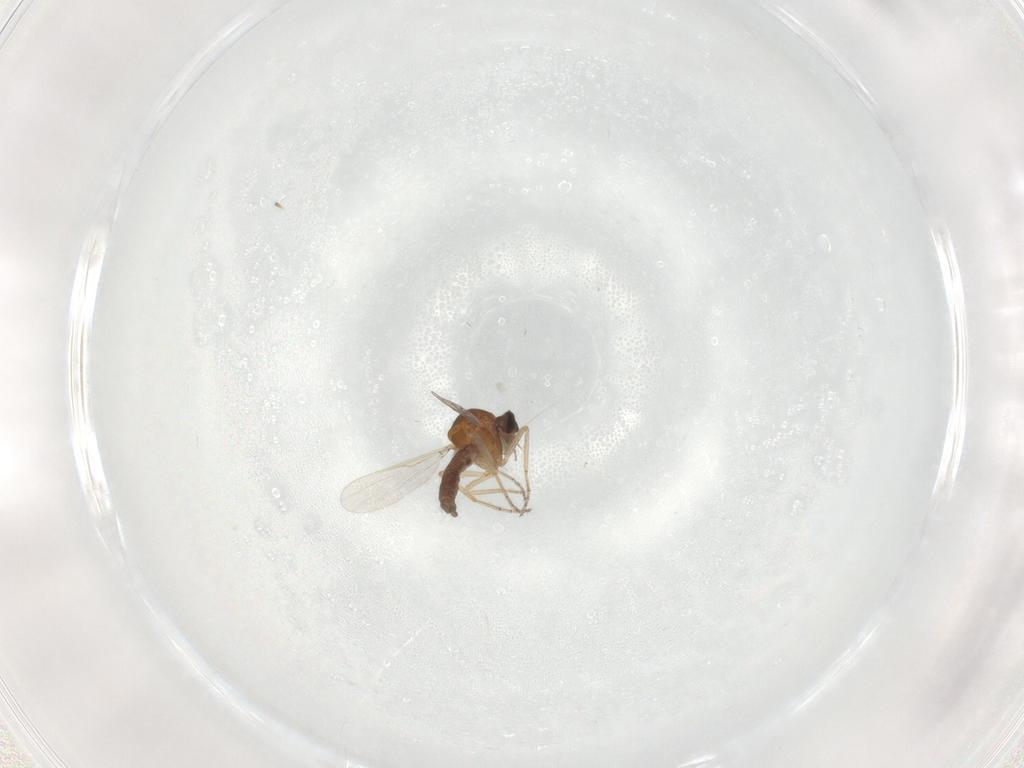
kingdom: Animalia
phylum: Arthropoda
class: Insecta
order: Diptera
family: Ceratopogonidae
